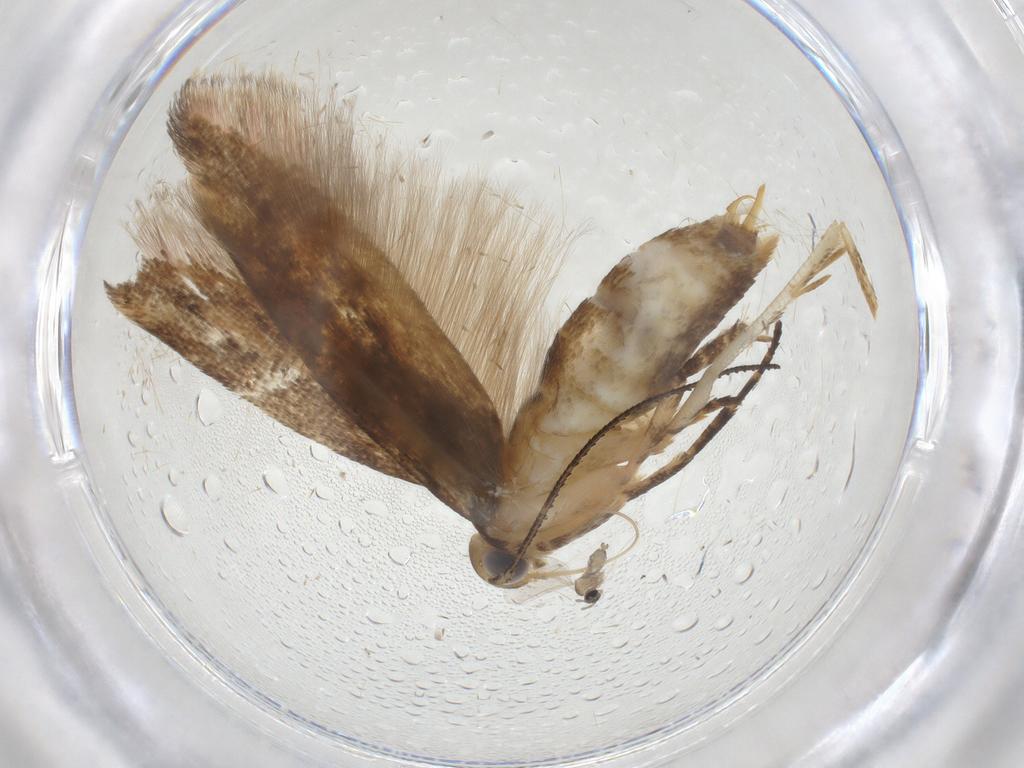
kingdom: Animalia
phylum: Arthropoda
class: Insecta
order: Lepidoptera
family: Gelechiidae
